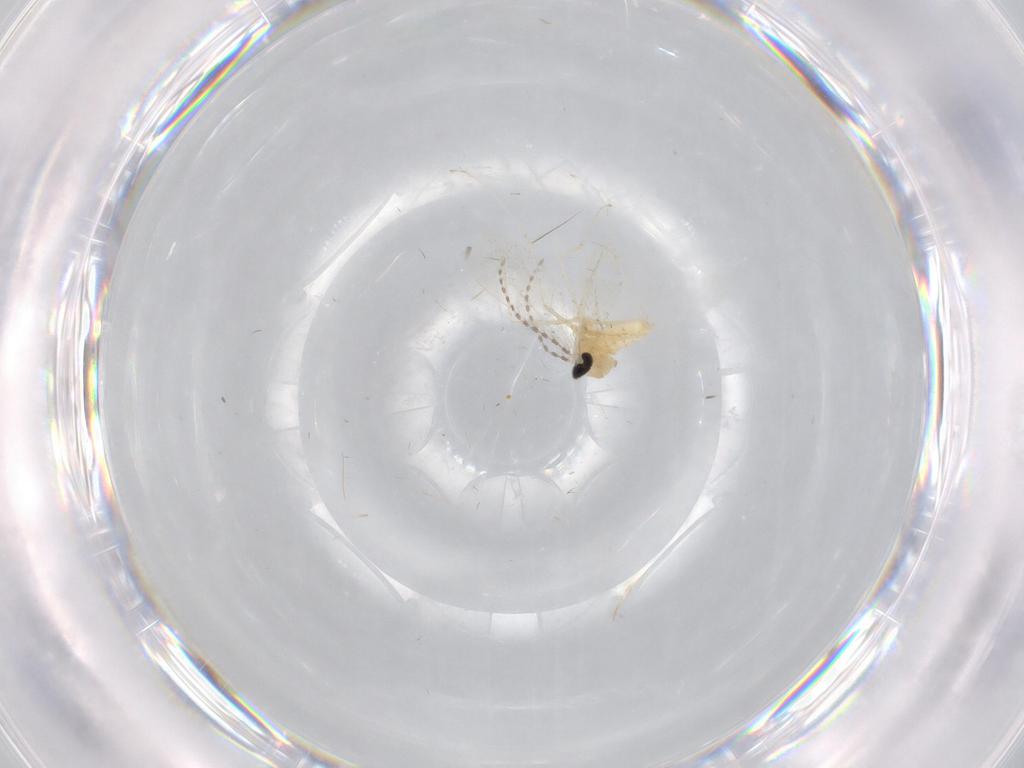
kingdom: Animalia
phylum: Arthropoda
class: Insecta
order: Diptera
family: Cecidomyiidae
